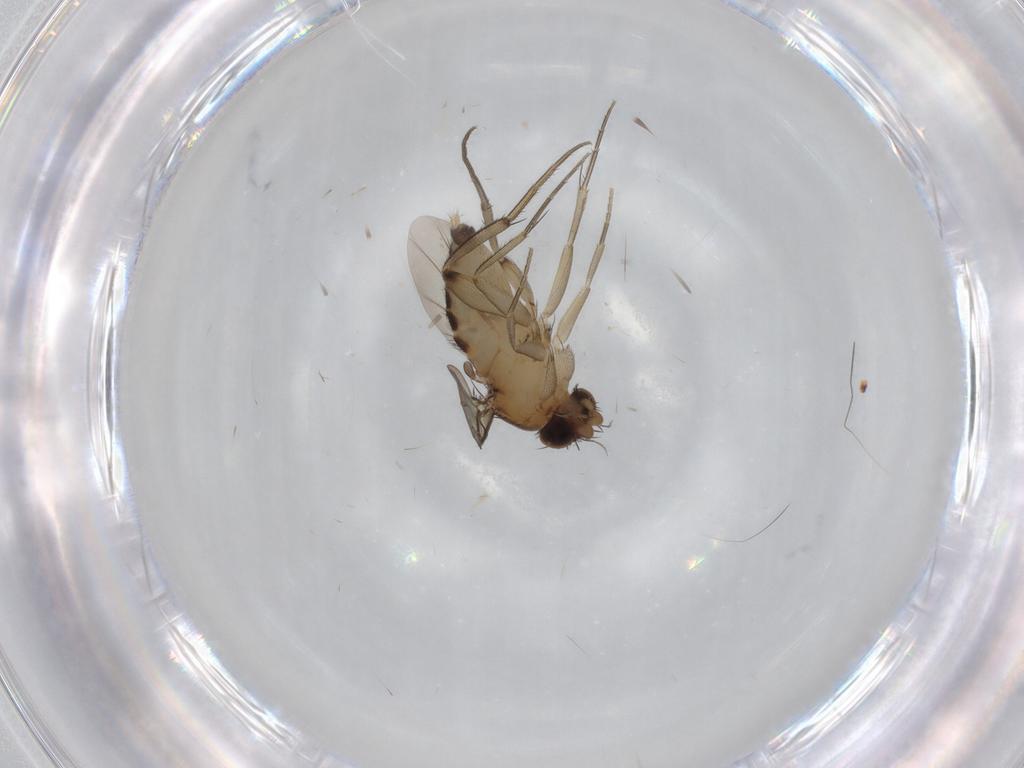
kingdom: Animalia
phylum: Arthropoda
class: Insecta
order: Diptera
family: Phoridae
